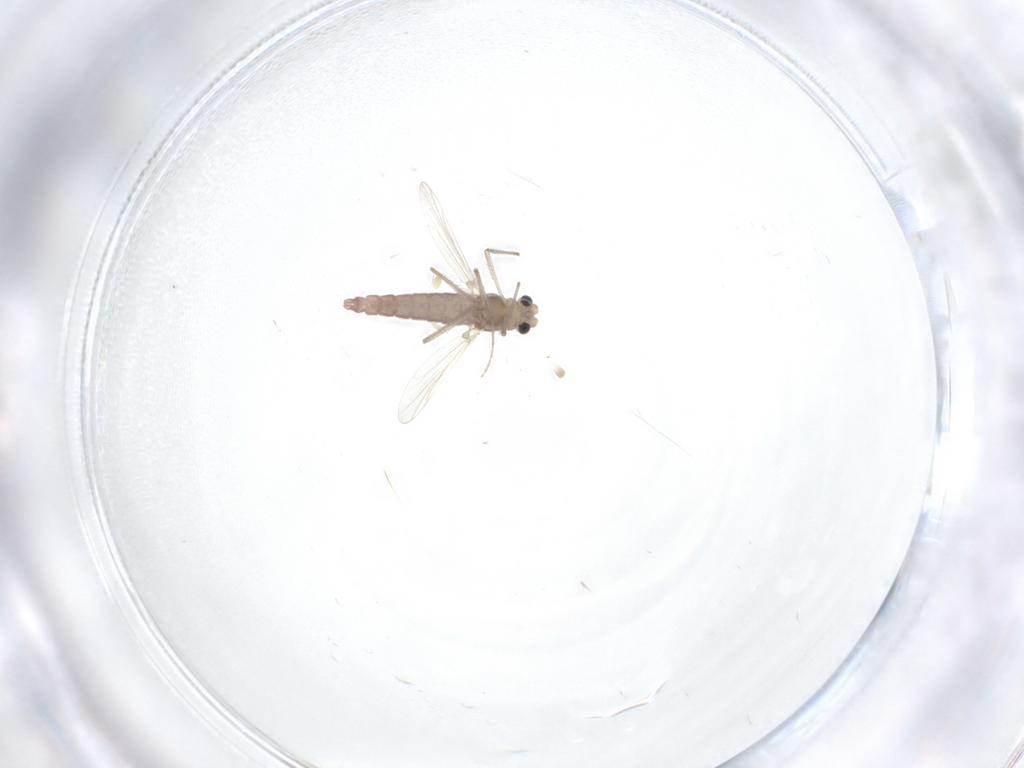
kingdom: Animalia
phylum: Arthropoda
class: Insecta
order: Diptera
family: Chironomidae
